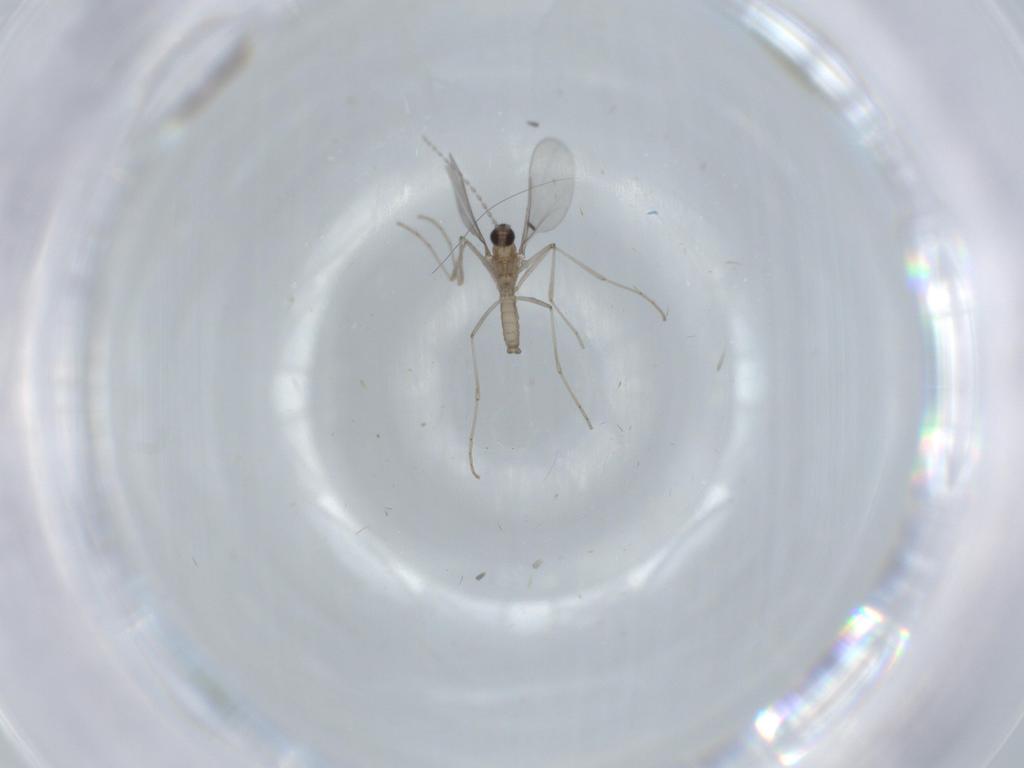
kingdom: Animalia
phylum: Arthropoda
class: Insecta
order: Diptera
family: Cecidomyiidae
